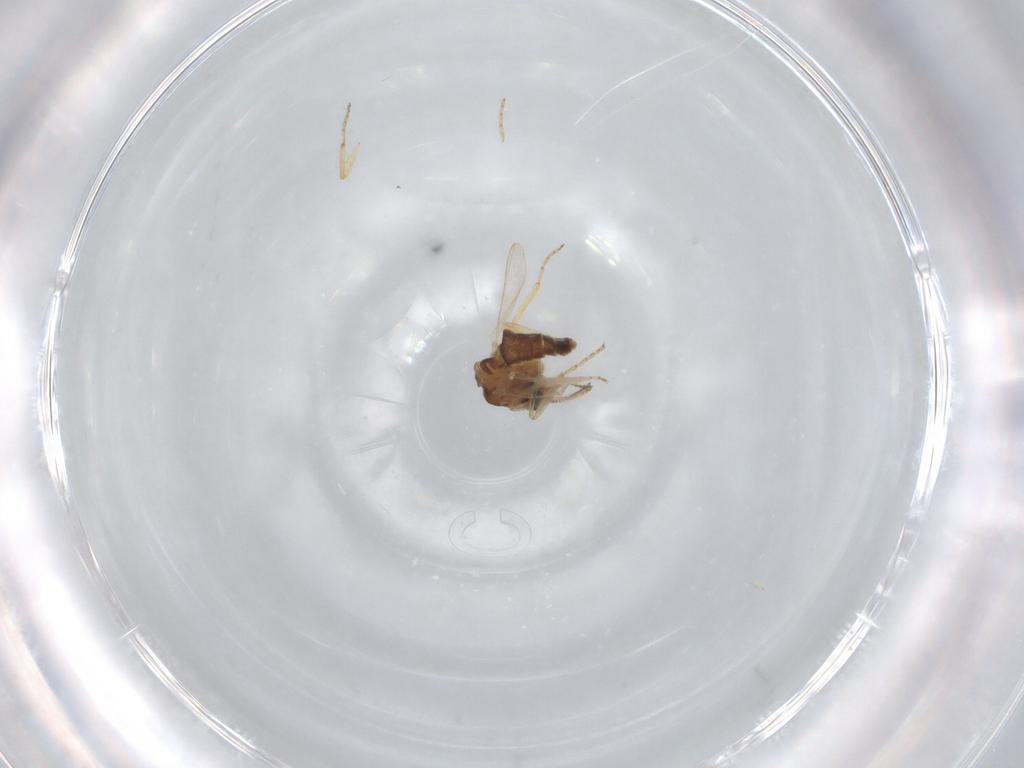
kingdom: Animalia
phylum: Arthropoda
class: Insecta
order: Diptera
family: Ceratopogonidae
